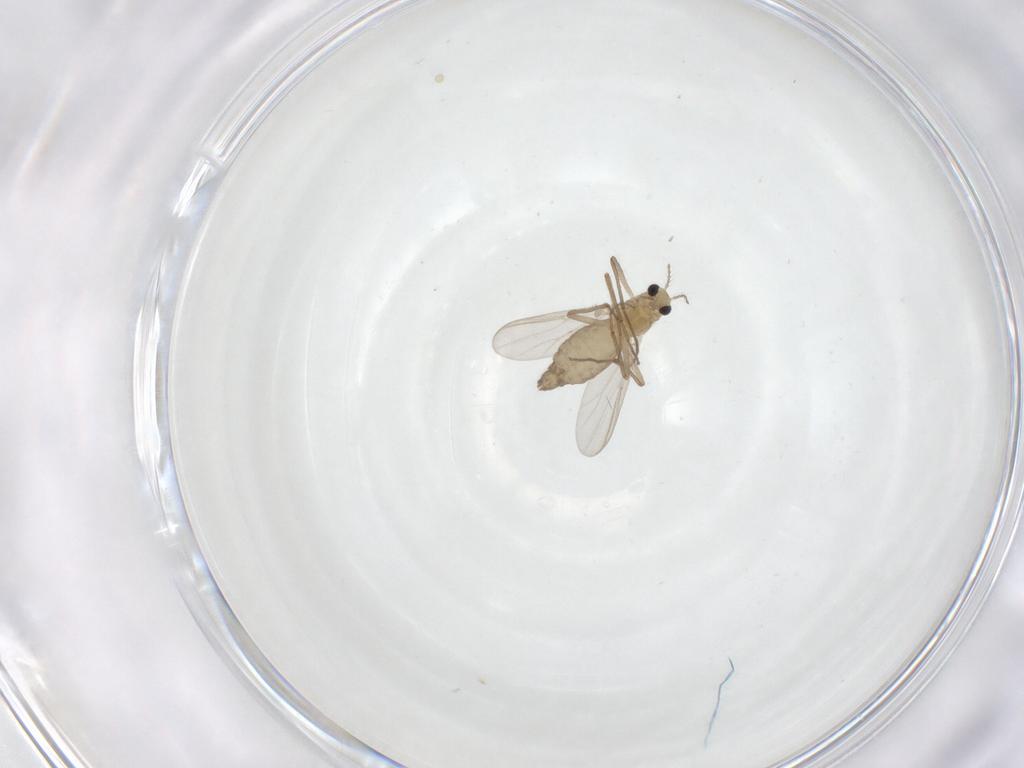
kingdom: Animalia
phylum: Arthropoda
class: Insecta
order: Diptera
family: Chironomidae
